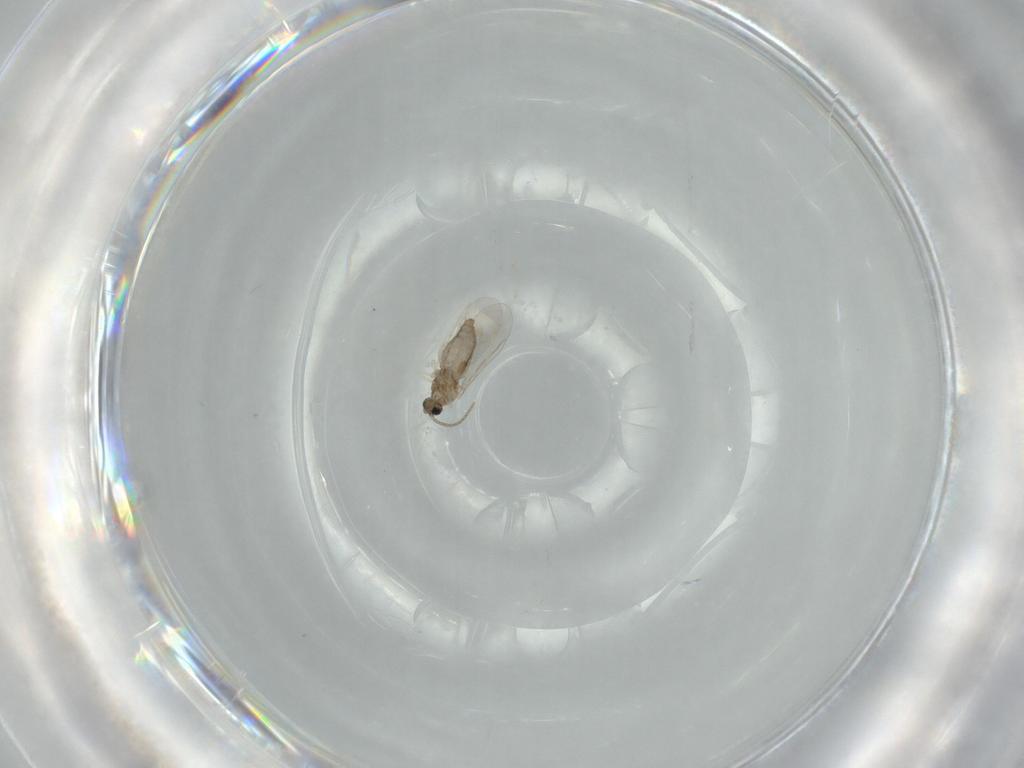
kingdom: Animalia
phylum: Arthropoda
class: Insecta
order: Diptera
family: Cecidomyiidae
